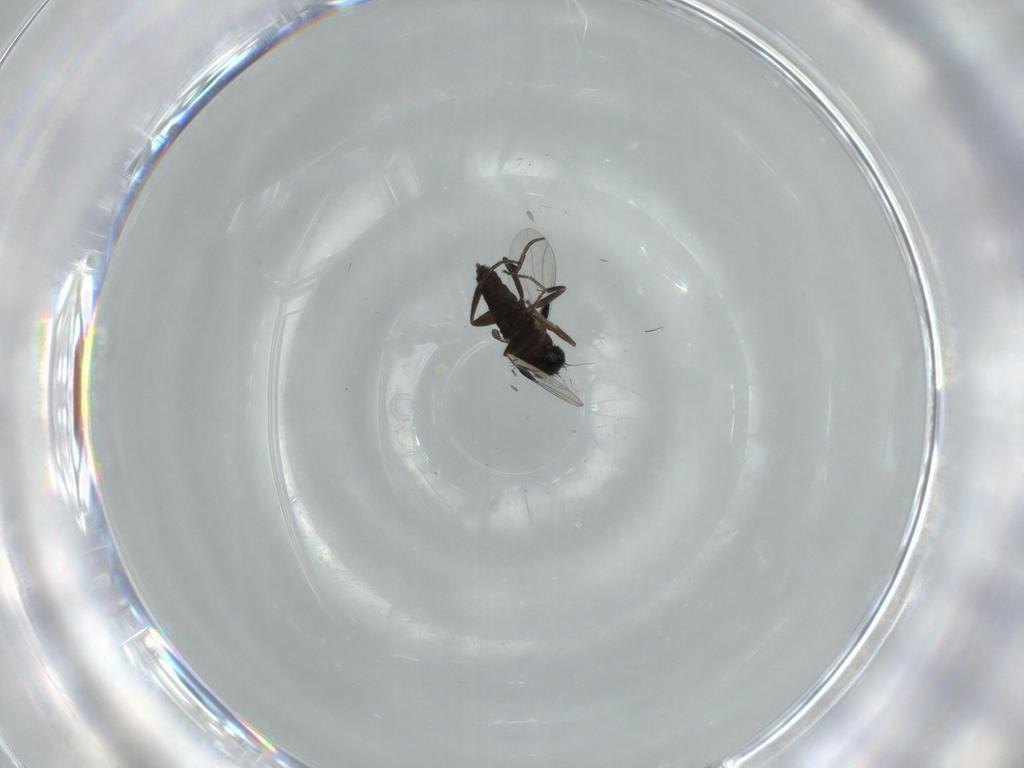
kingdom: Animalia
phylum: Arthropoda
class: Insecta
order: Diptera
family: Phoridae
